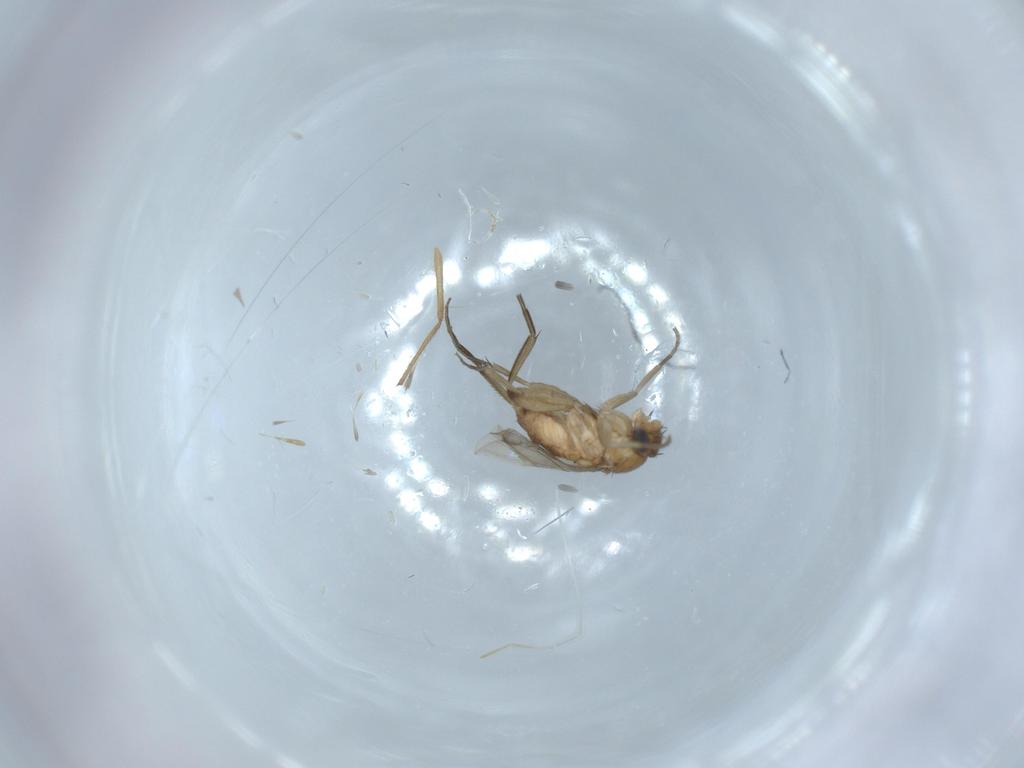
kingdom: Animalia
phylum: Arthropoda
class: Insecta
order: Diptera
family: Phoridae
